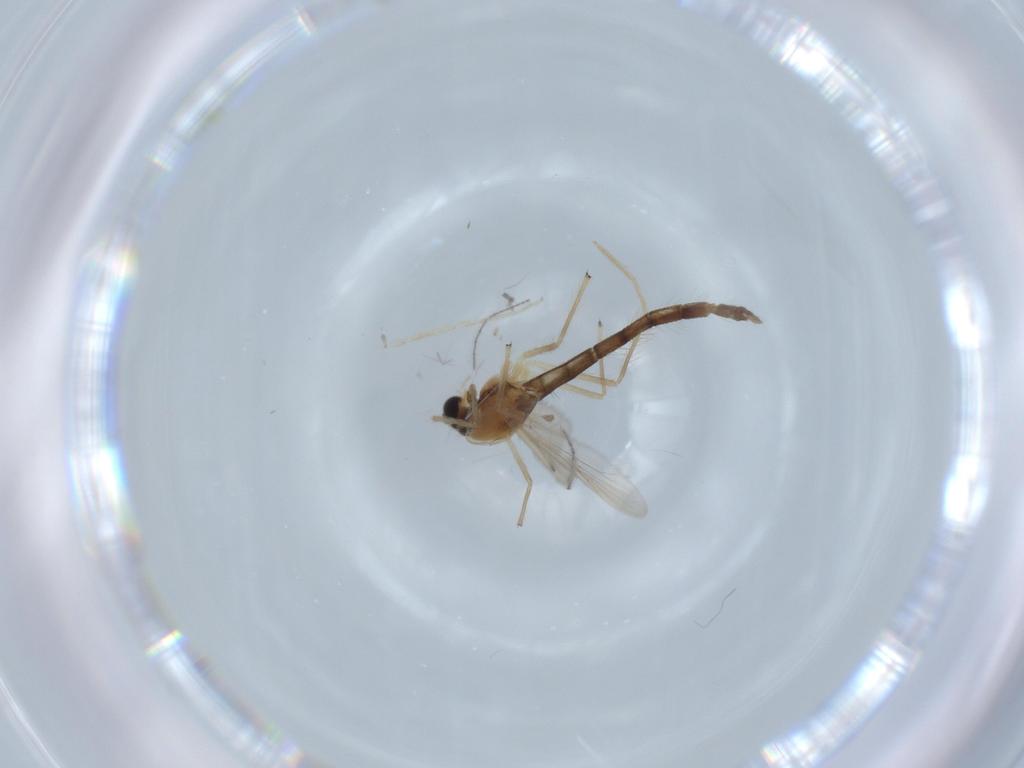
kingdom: Animalia
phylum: Arthropoda
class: Insecta
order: Diptera
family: Chironomidae
